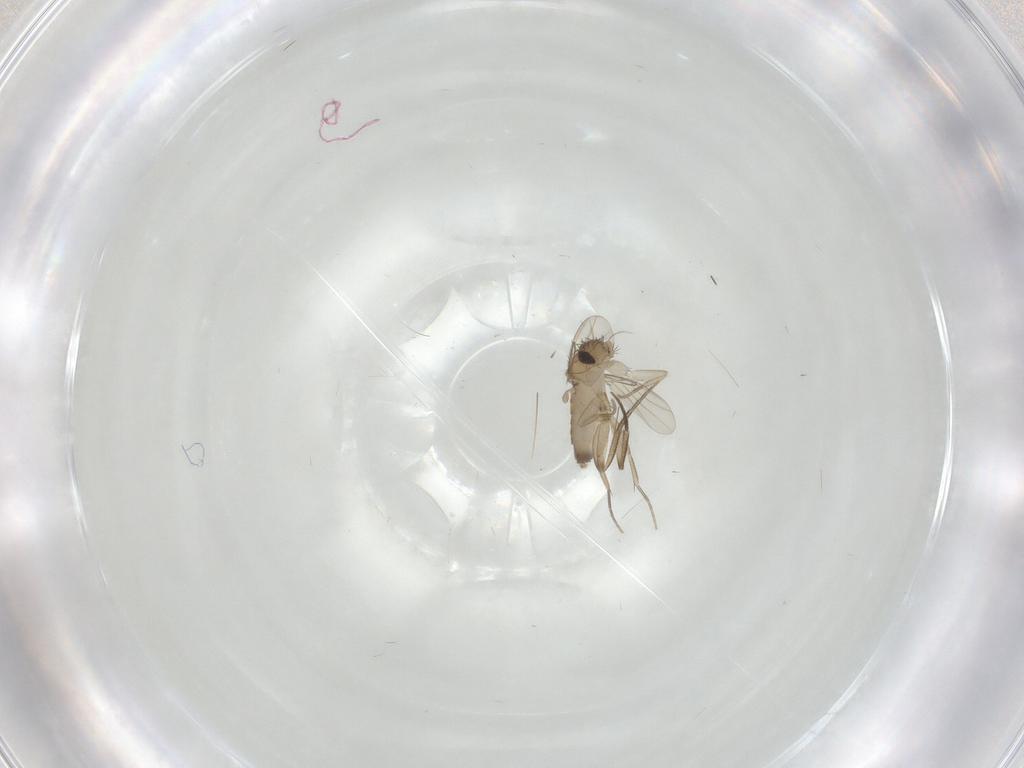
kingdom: Animalia
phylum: Arthropoda
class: Insecta
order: Diptera
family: Phoridae
